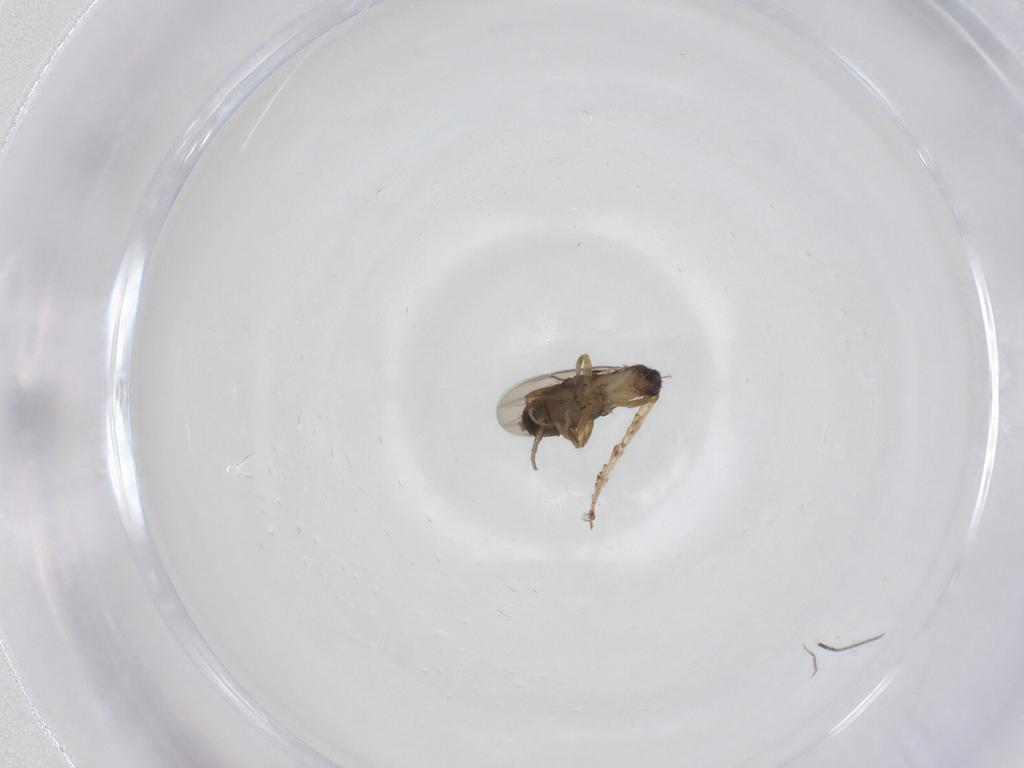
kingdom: Animalia
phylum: Arthropoda
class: Insecta
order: Diptera
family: Phoridae
